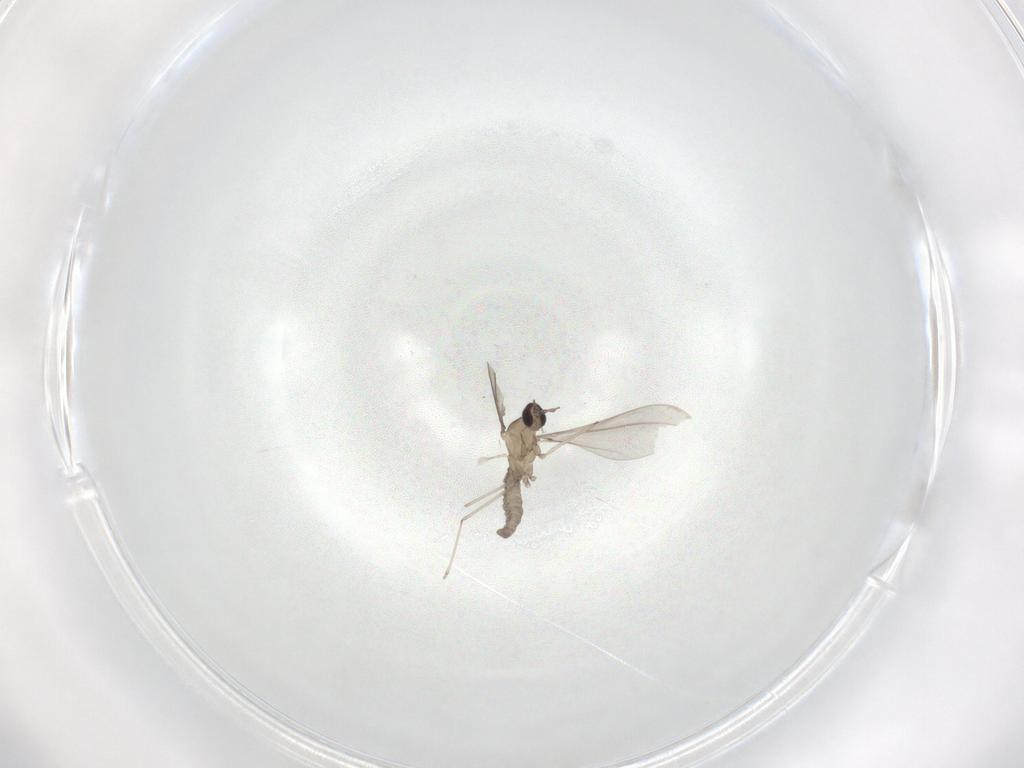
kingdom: Animalia
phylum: Arthropoda
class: Insecta
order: Diptera
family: Cecidomyiidae
